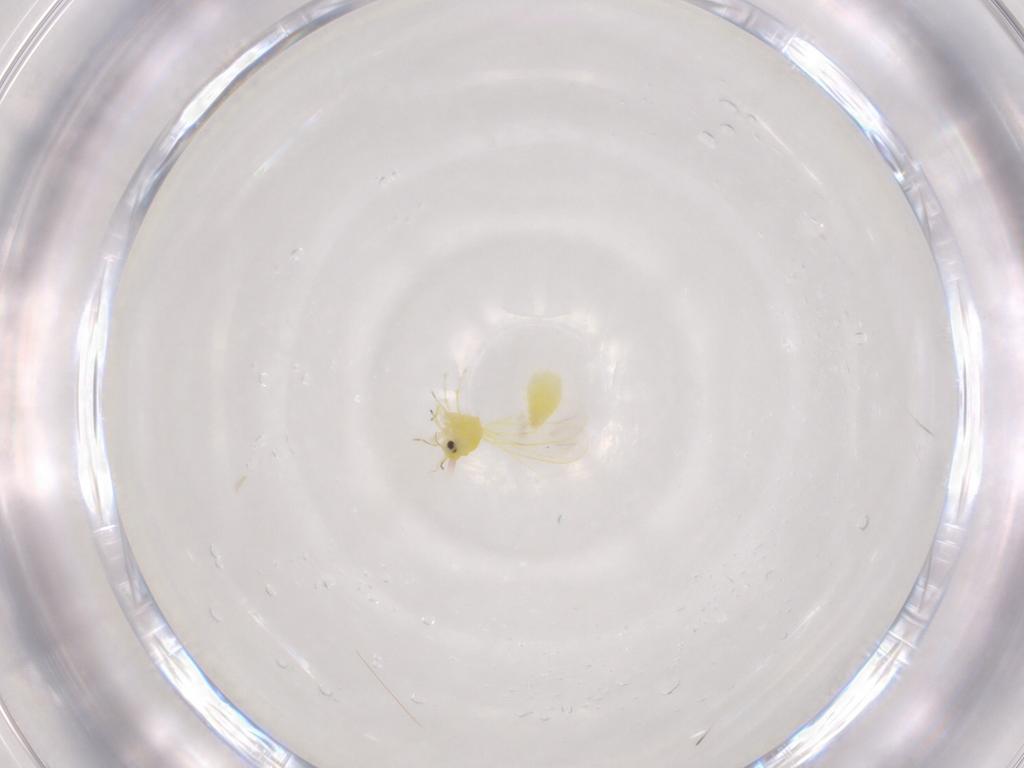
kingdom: Animalia
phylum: Arthropoda
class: Insecta
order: Hemiptera
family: Aleyrodidae
